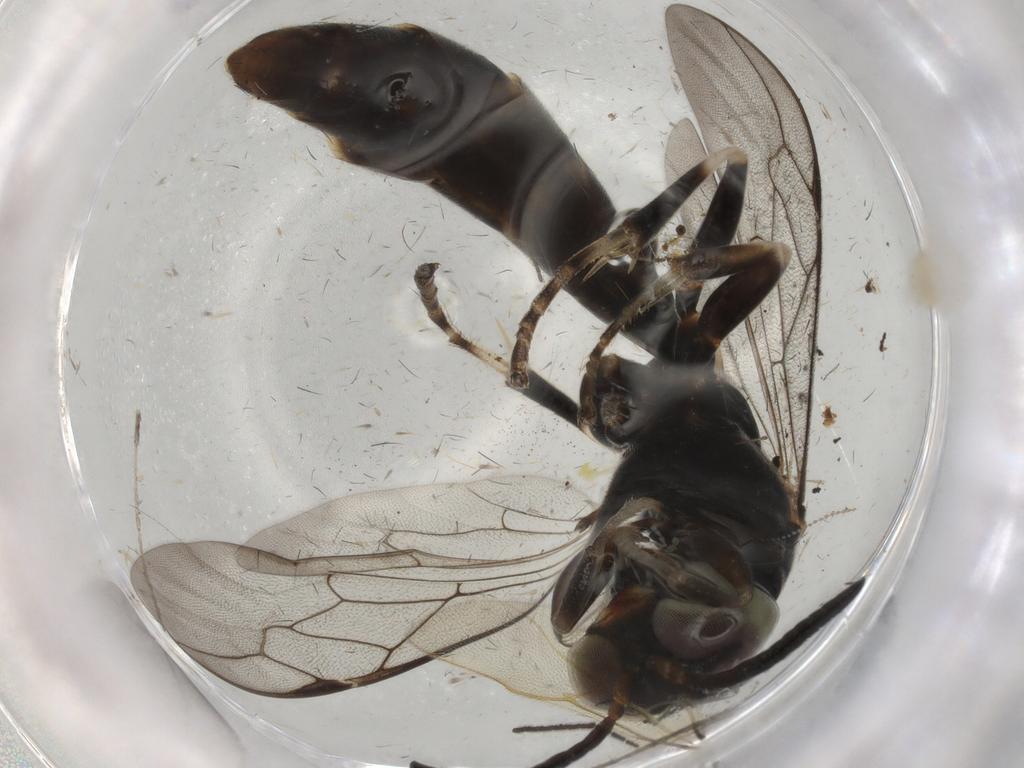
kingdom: Animalia
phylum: Arthropoda
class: Insecta
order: Hymenoptera
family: Crabronidae
